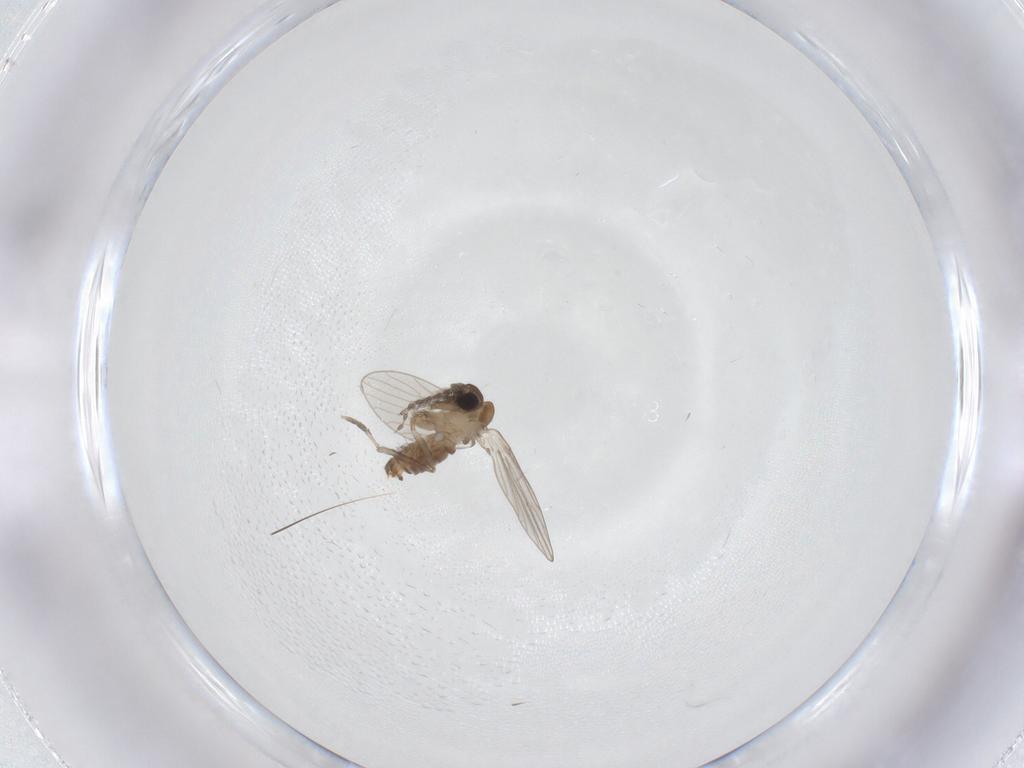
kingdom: Animalia
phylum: Arthropoda
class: Insecta
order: Diptera
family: Psychodidae
